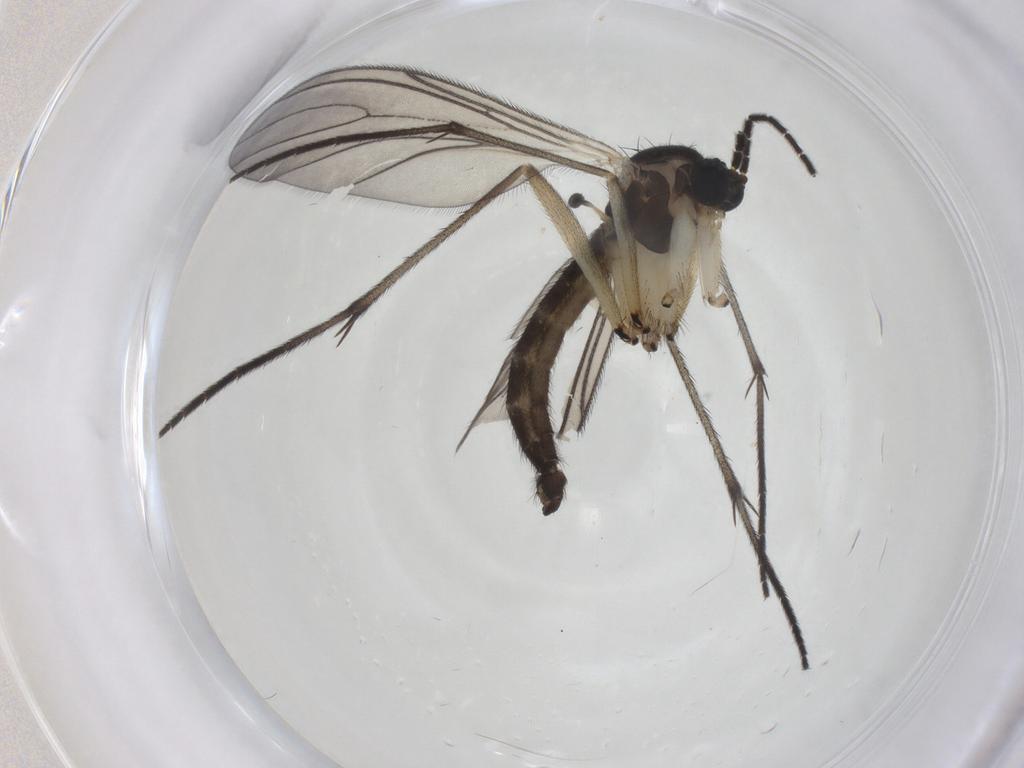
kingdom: Animalia
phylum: Arthropoda
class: Insecta
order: Diptera
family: Sciaridae
